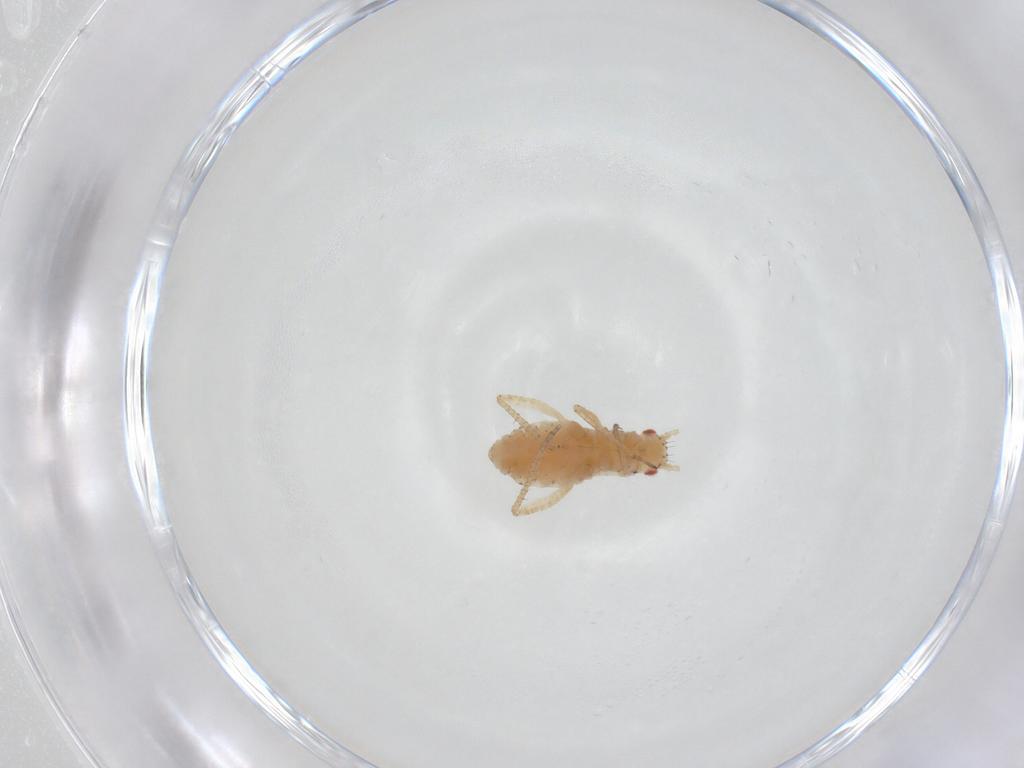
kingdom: Animalia
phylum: Arthropoda
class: Insecta
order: Hemiptera
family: Aphididae
